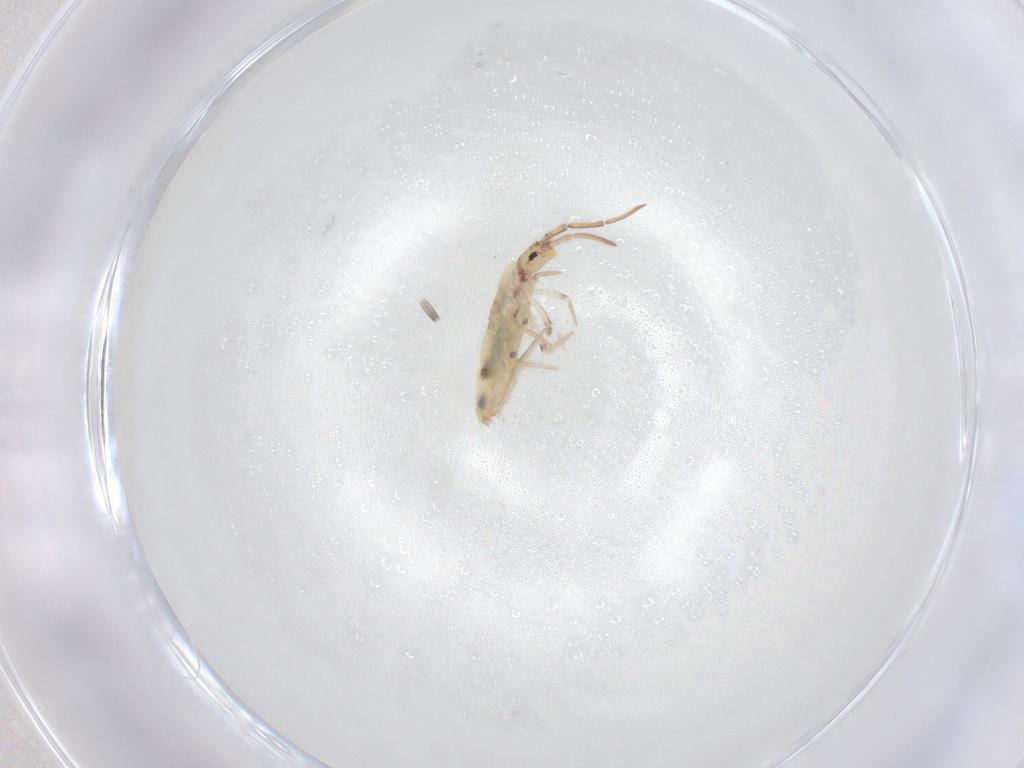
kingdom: Animalia
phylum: Arthropoda
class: Collembola
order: Entomobryomorpha
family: Entomobryidae
